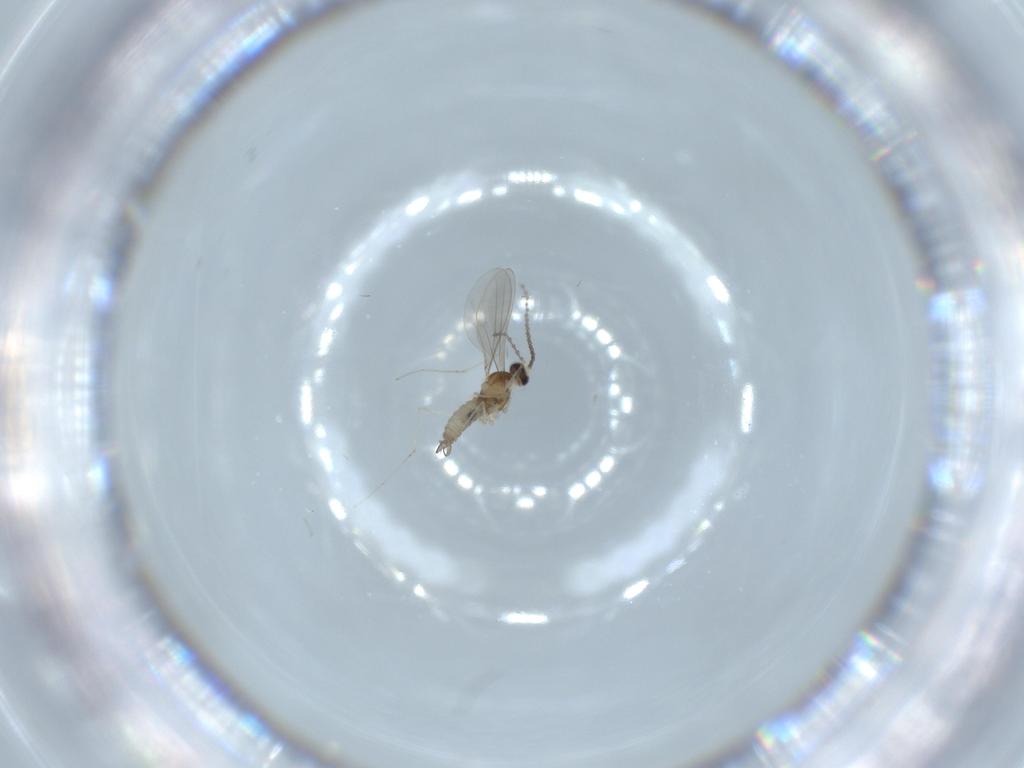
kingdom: Animalia
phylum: Arthropoda
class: Insecta
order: Diptera
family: Cecidomyiidae
